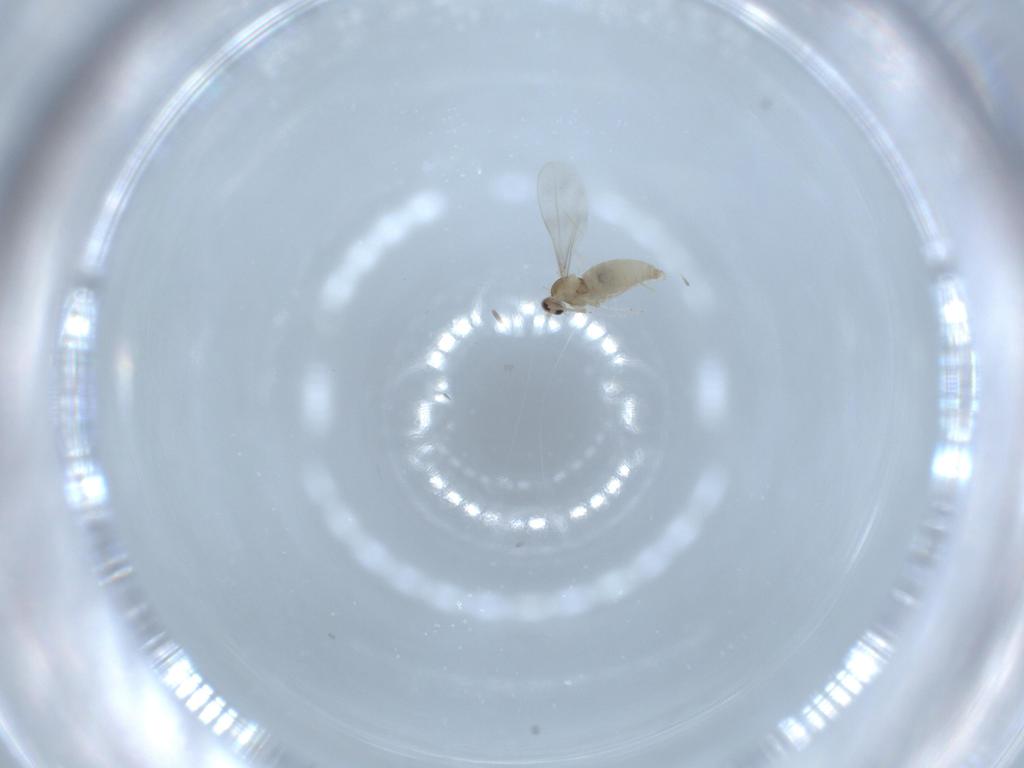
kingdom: Animalia
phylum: Arthropoda
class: Insecta
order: Diptera
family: Cecidomyiidae
